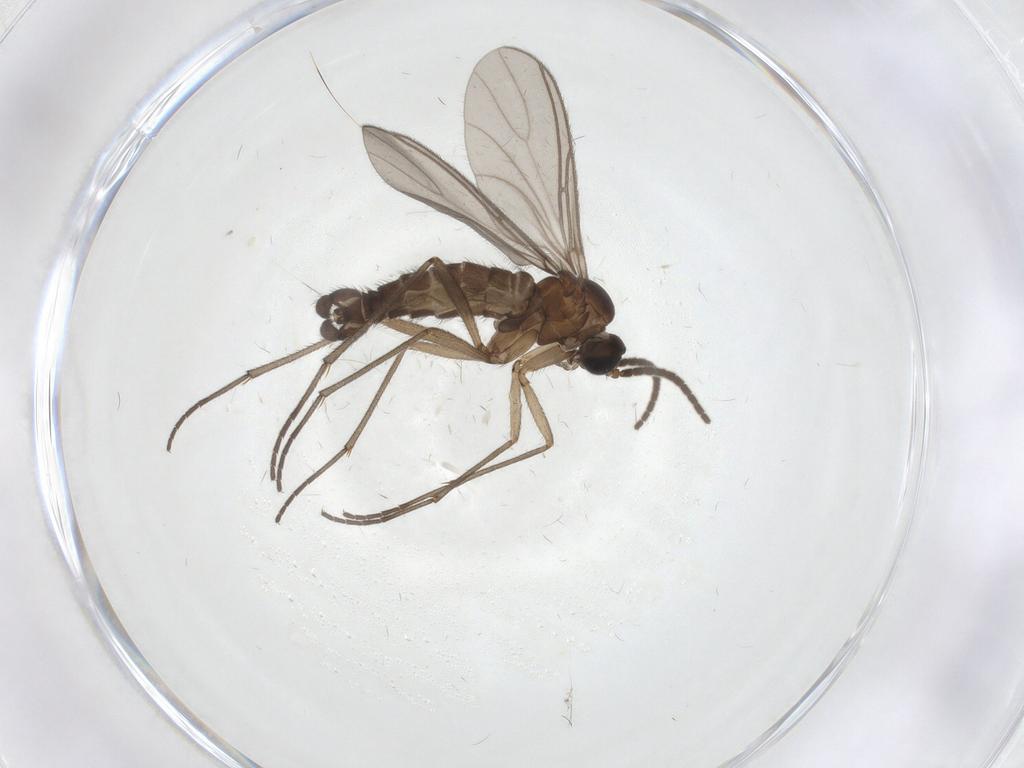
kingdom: Animalia
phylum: Arthropoda
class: Insecta
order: Diptera
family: Sciaridae
